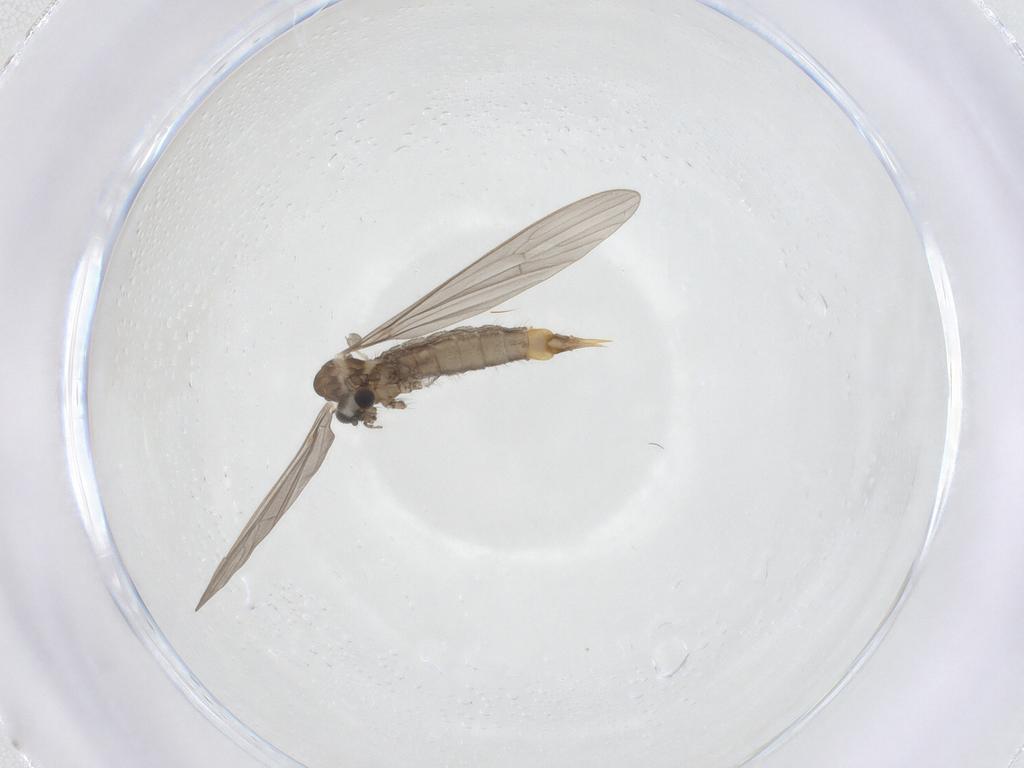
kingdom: Animalia
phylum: Arthropoda
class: Insecta
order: Diptera
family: Limoniidae
